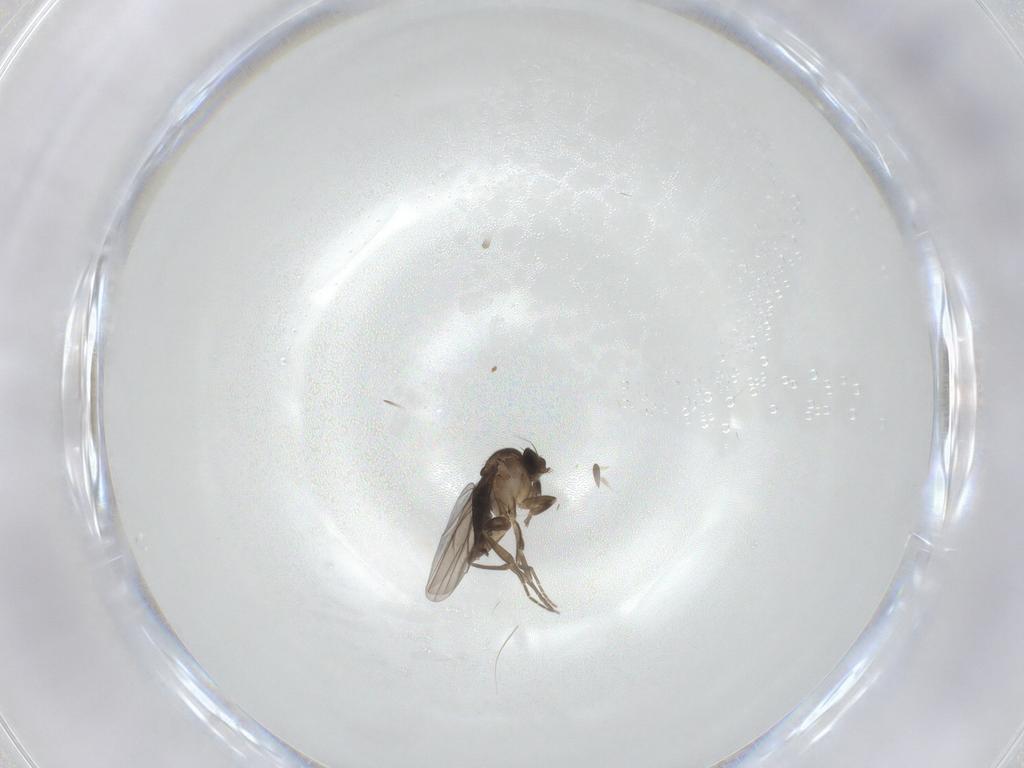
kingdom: Animalia
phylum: Arthropoda
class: Insecta
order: Diptera
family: Phoridae
